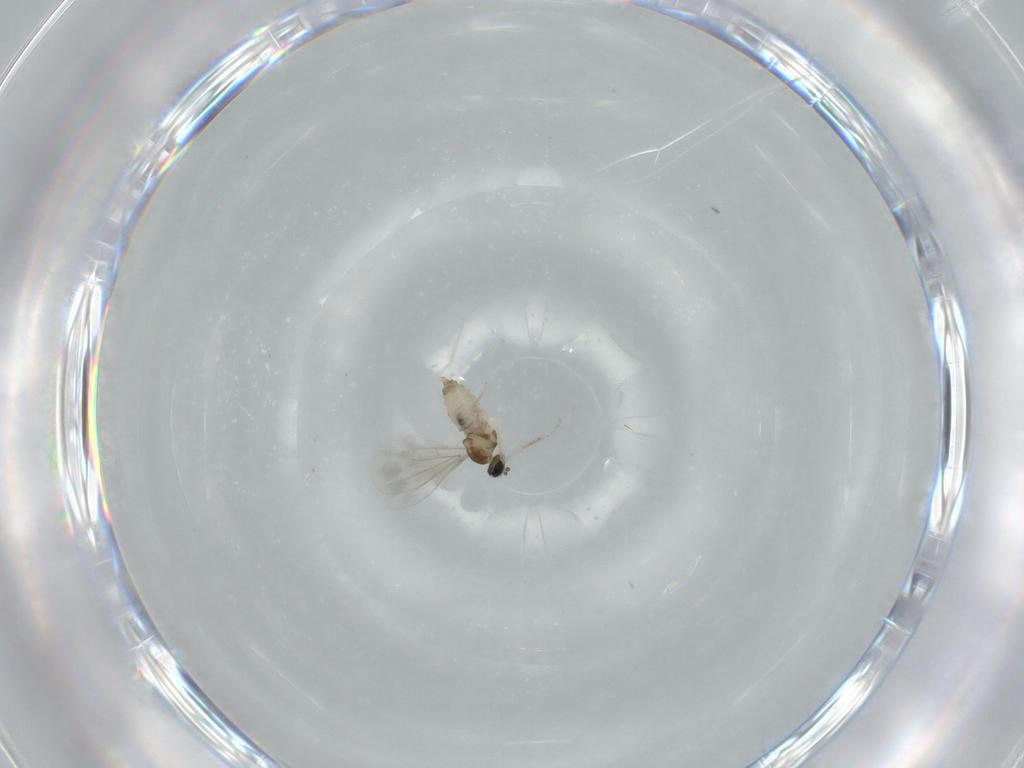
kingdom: Animalia
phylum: Arthropoda
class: Insecta
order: Diptera
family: Cecidomyiidae
